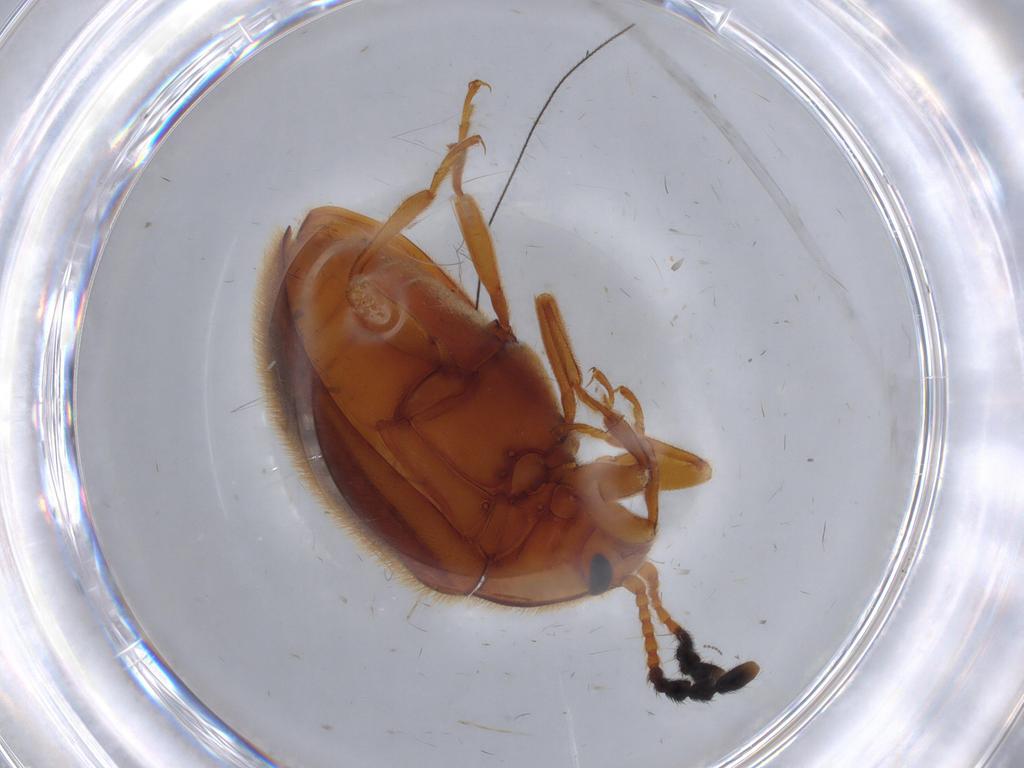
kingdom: Animalia
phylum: Arthropoda
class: Insecta
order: Coleoptera
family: Endomychidae
